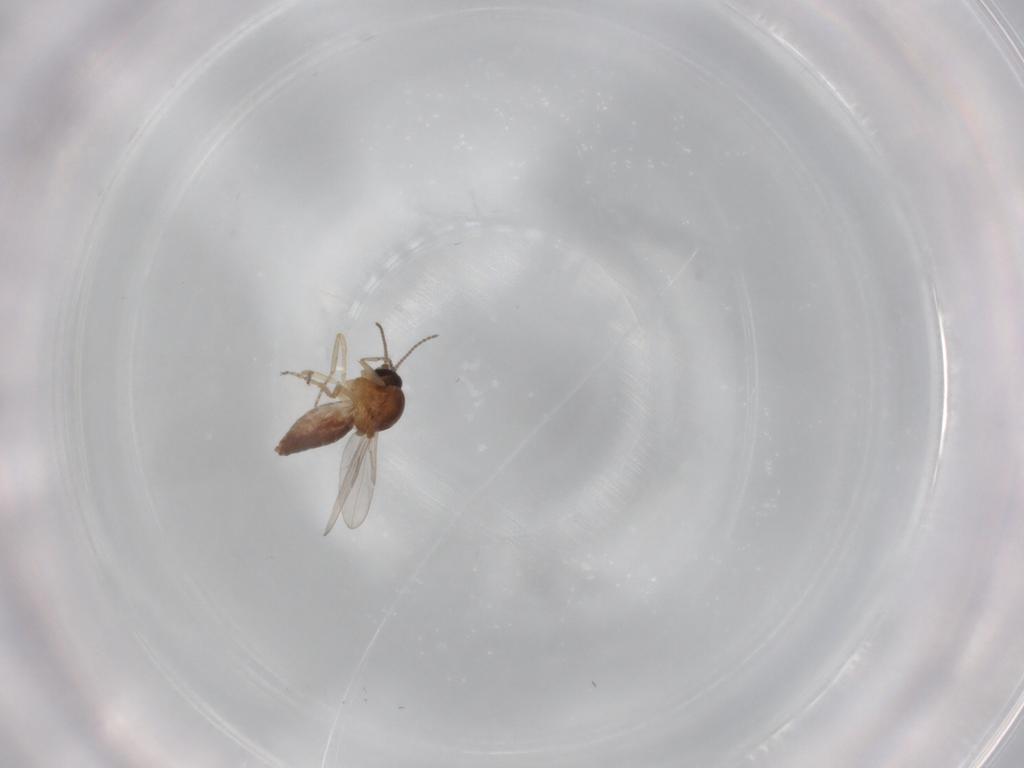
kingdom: Animalia
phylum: Arthropoda
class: Insecta
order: Diptera
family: Ceratopogonidae
